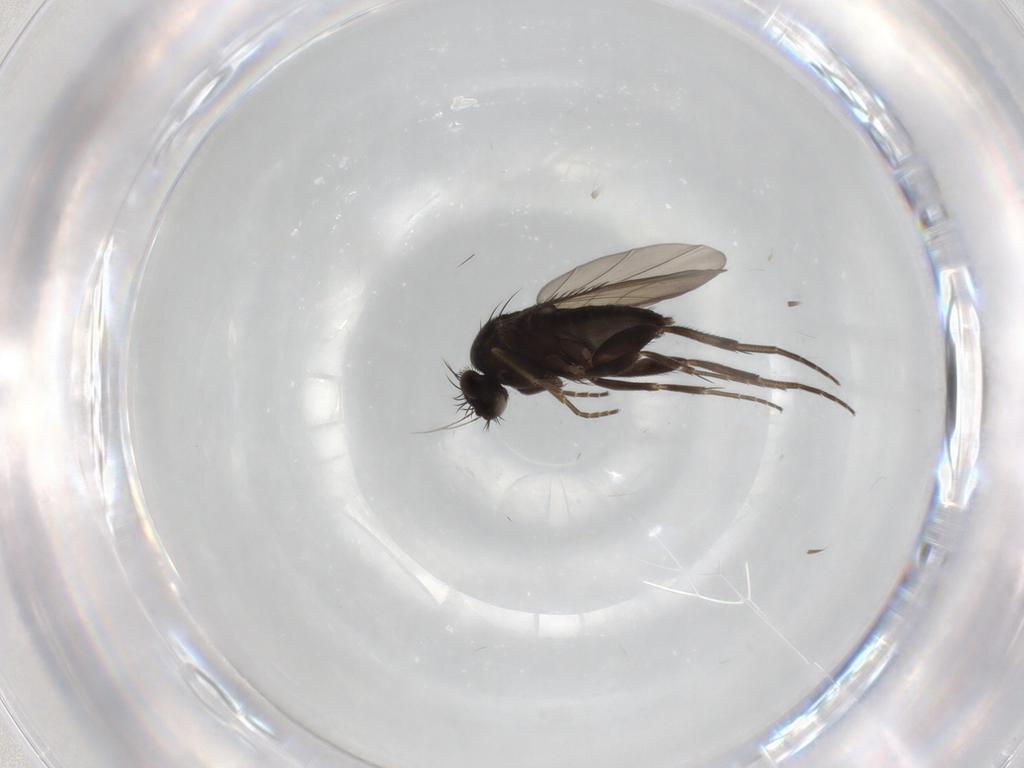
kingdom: Animalia
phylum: Arthropoda
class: Insecta
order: Diptera
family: Phoridae
